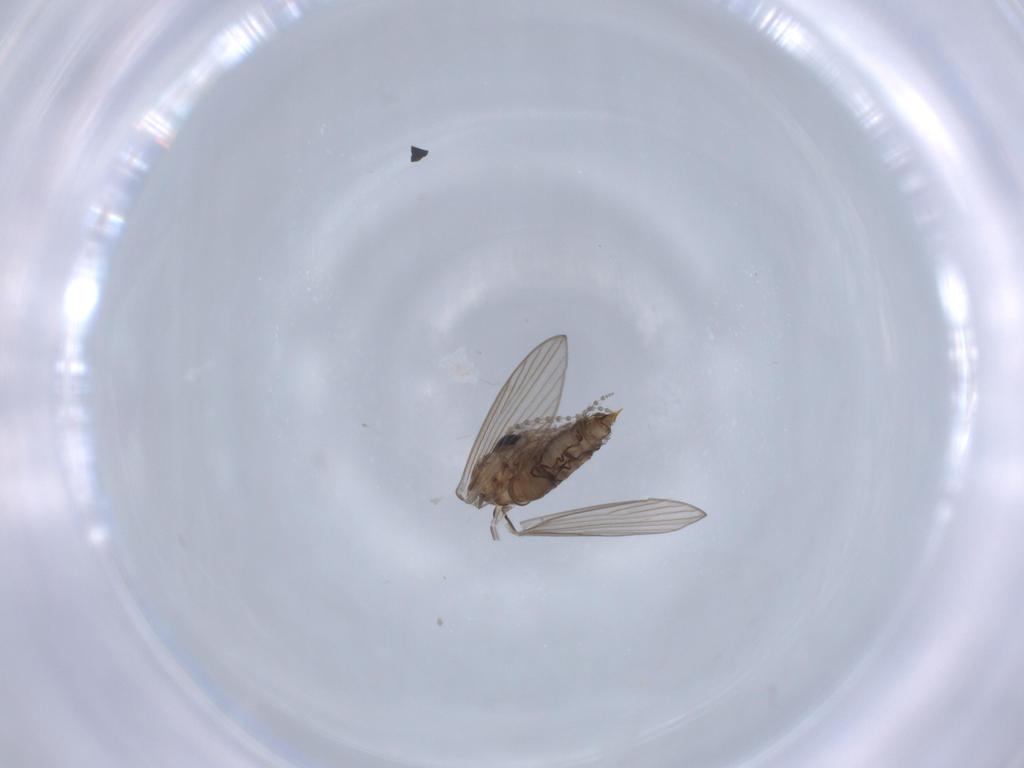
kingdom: Animalia
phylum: Arthropoda
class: Insecta
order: Diptera
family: Psychodidae
